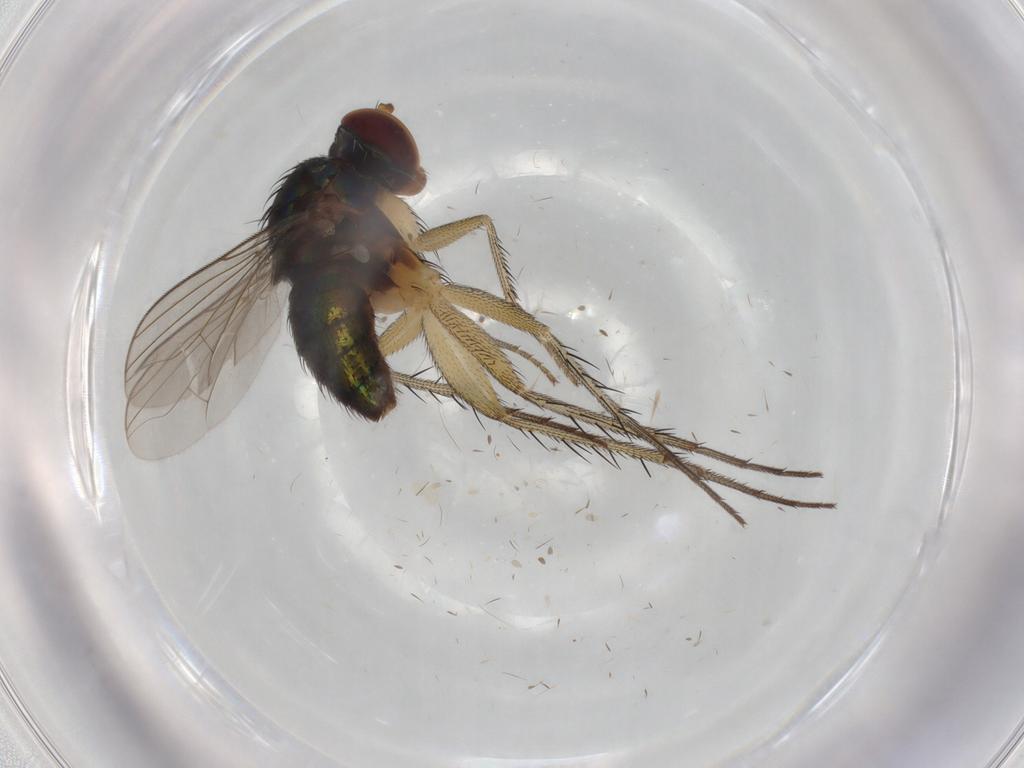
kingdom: Animalia
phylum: Arthropoda
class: Insecta
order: Diptera
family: Dolichopodidae
